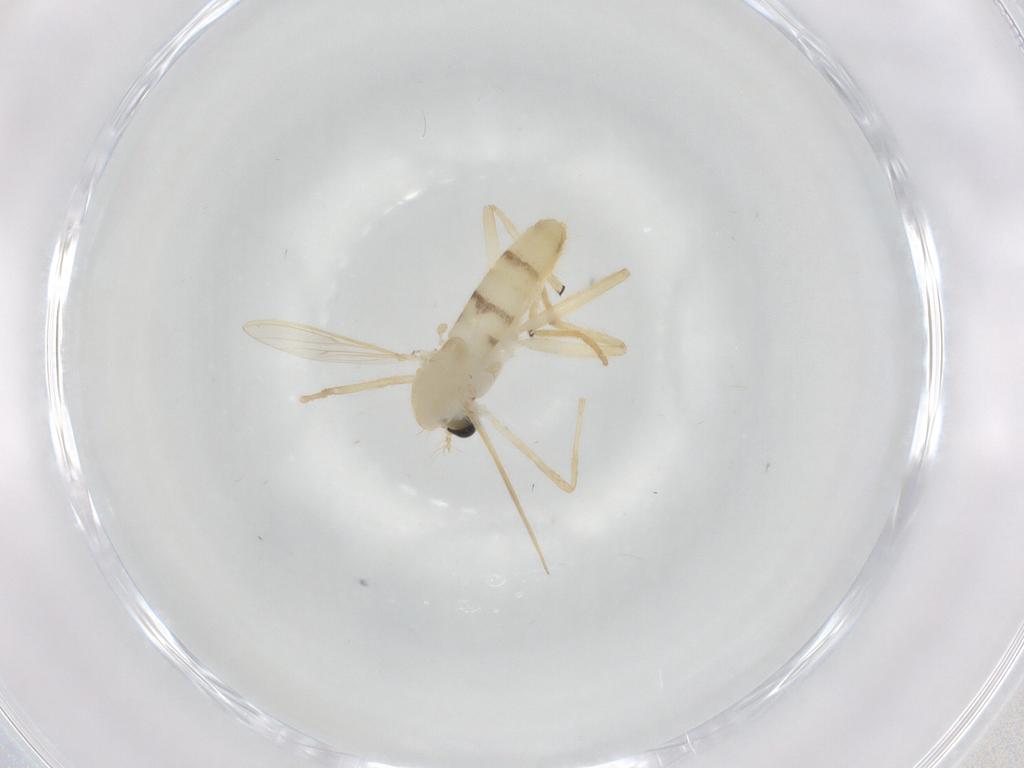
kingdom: Animalia
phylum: Arthropoda
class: Insecta
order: Diptera
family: Chironomidae
